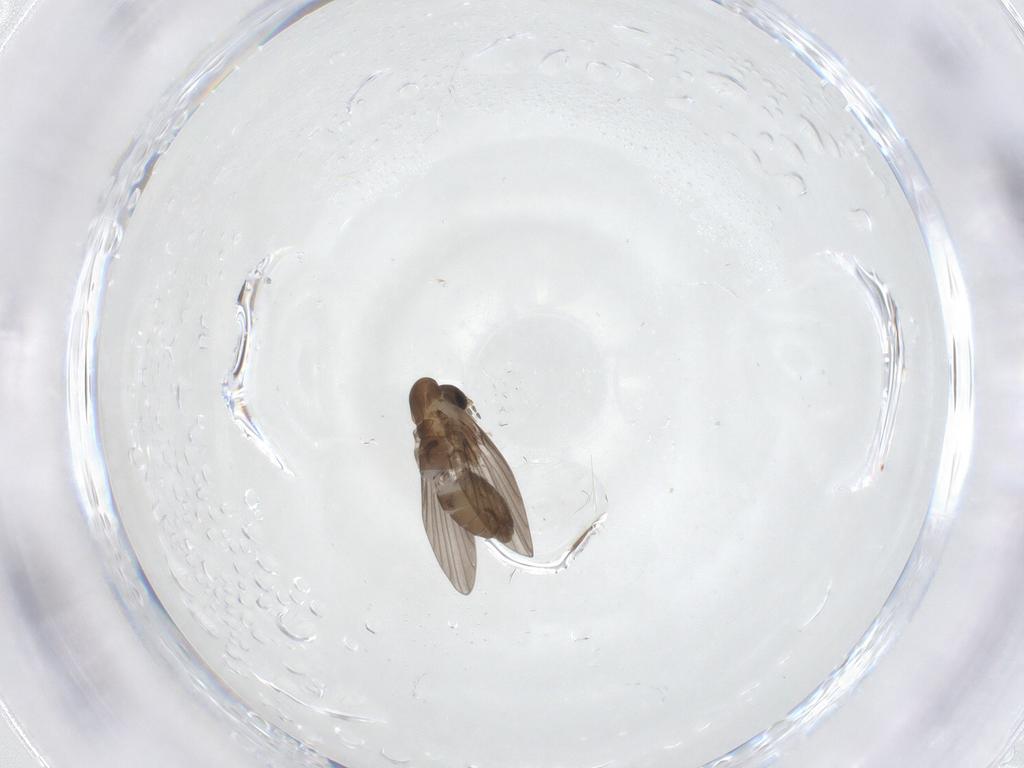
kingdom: Animalia
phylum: Arthropoda
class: Insecta
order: Diptera
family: Psychodidae
